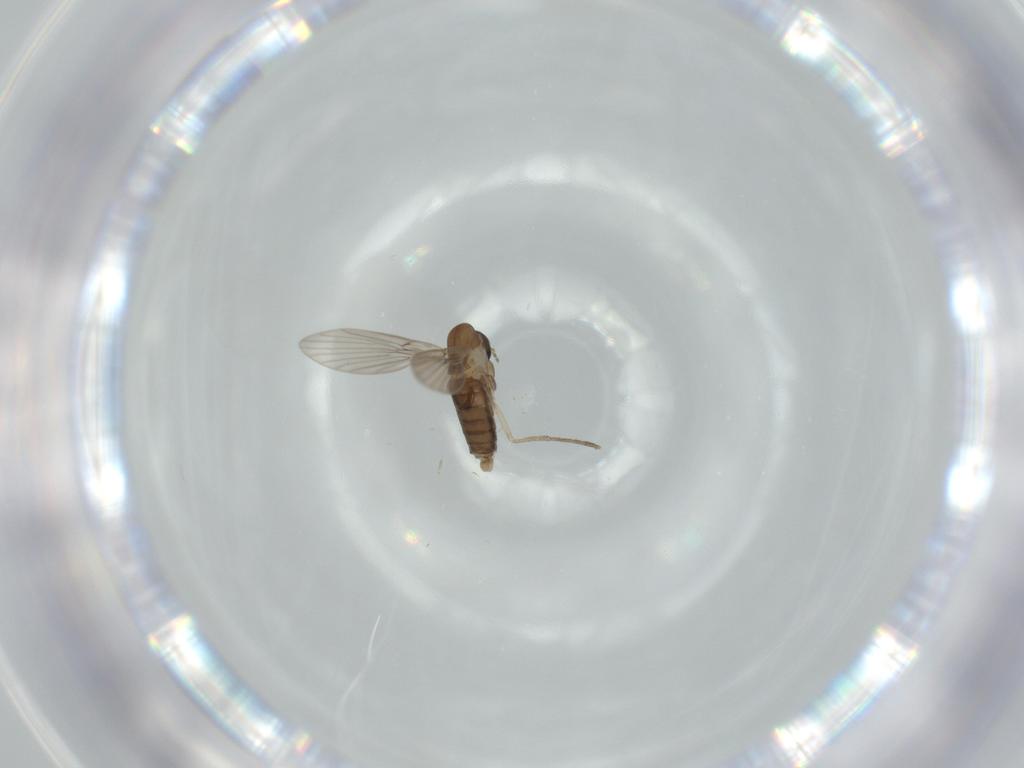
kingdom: Animalia
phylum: Arthropoda
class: Insecta
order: Diptera
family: Cecidomyiidae
